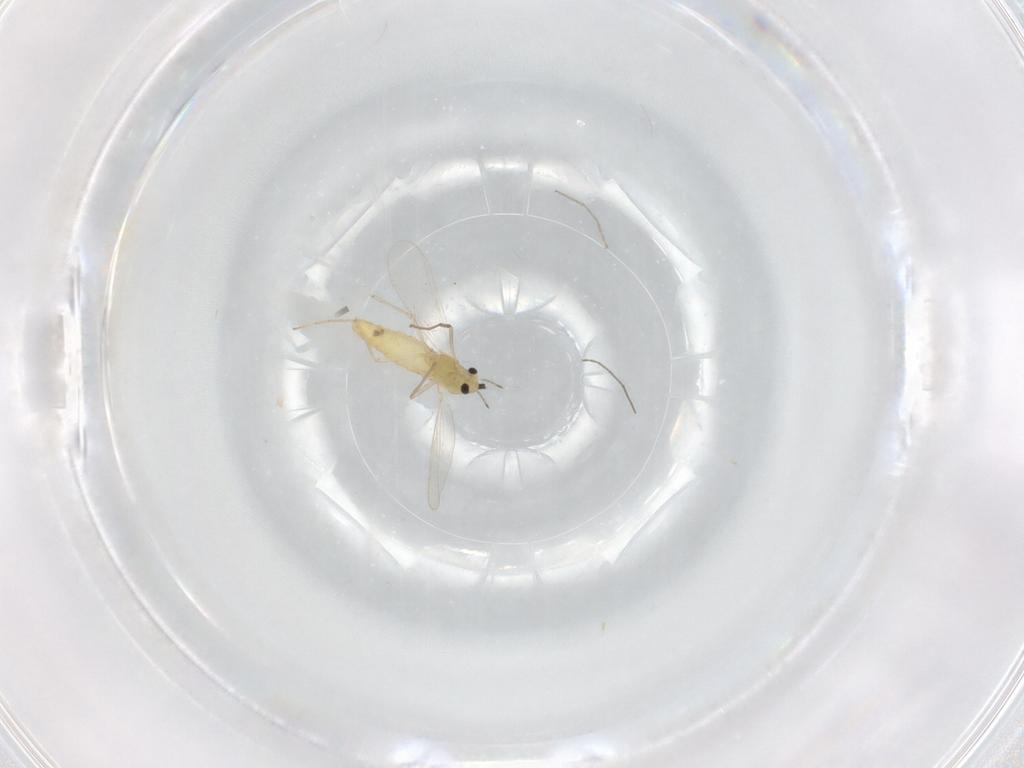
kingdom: Animalia
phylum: Arthropoda
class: Insecta
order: Diptera
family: Chironomidae
